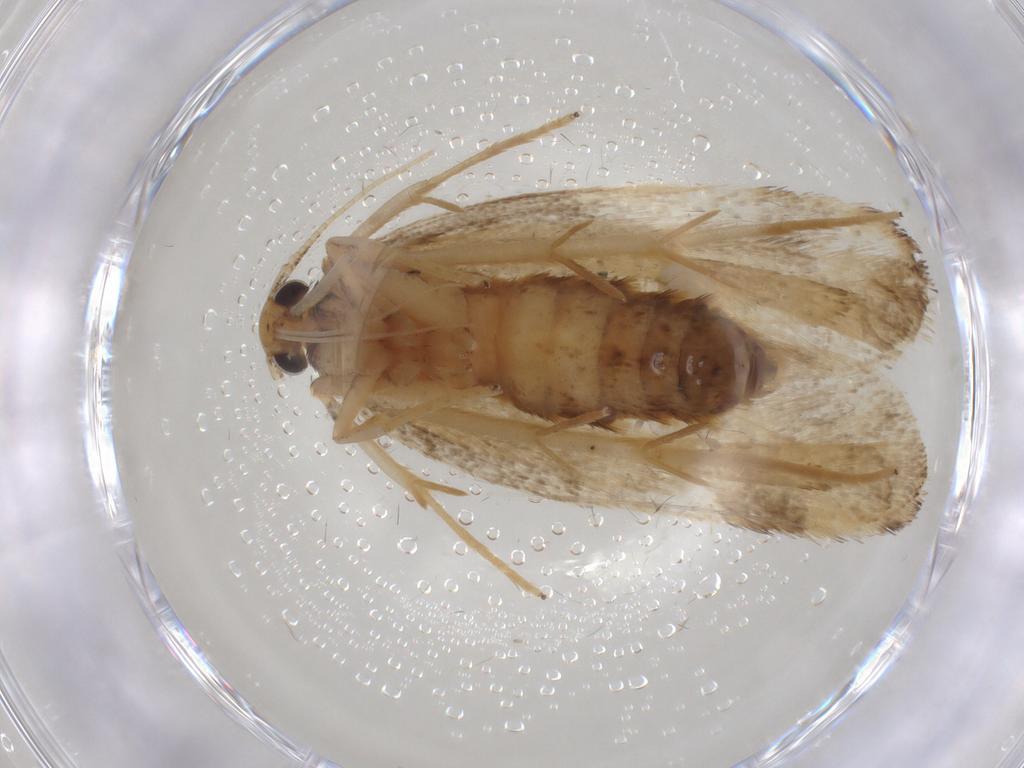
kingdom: Animalia
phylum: Arthropoda
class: Insecta
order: Lepidoptera
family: Lecithoceridae
